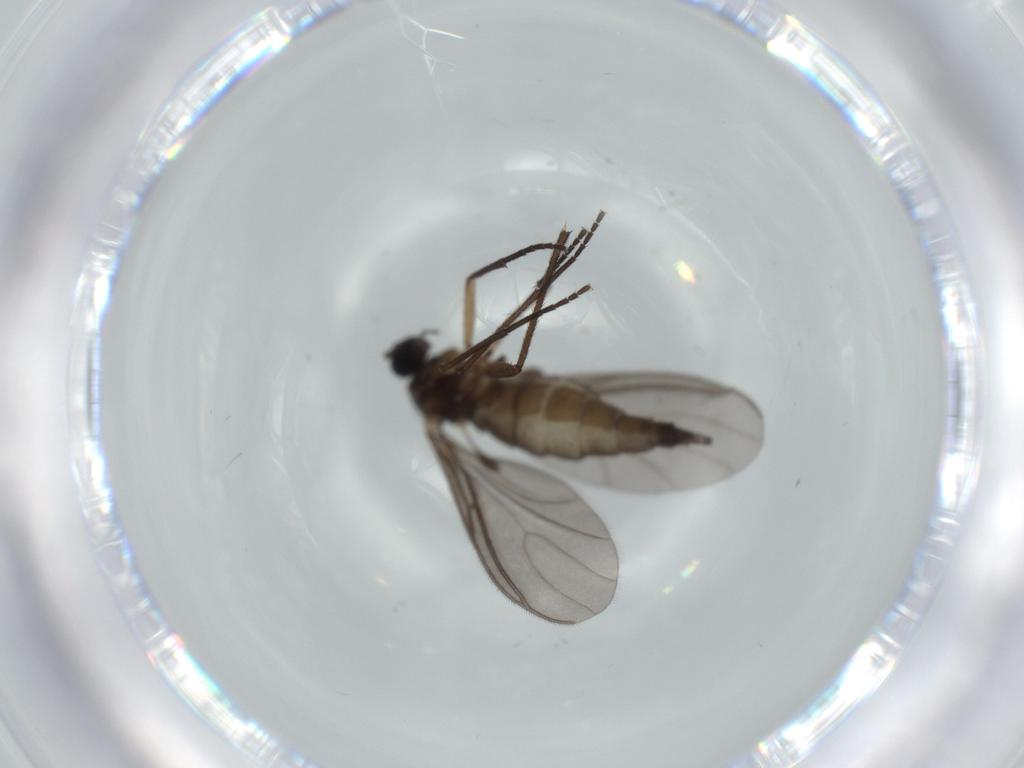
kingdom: Animalia
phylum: Arthropoda
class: Insecta
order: Diptera
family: Sciaridae
